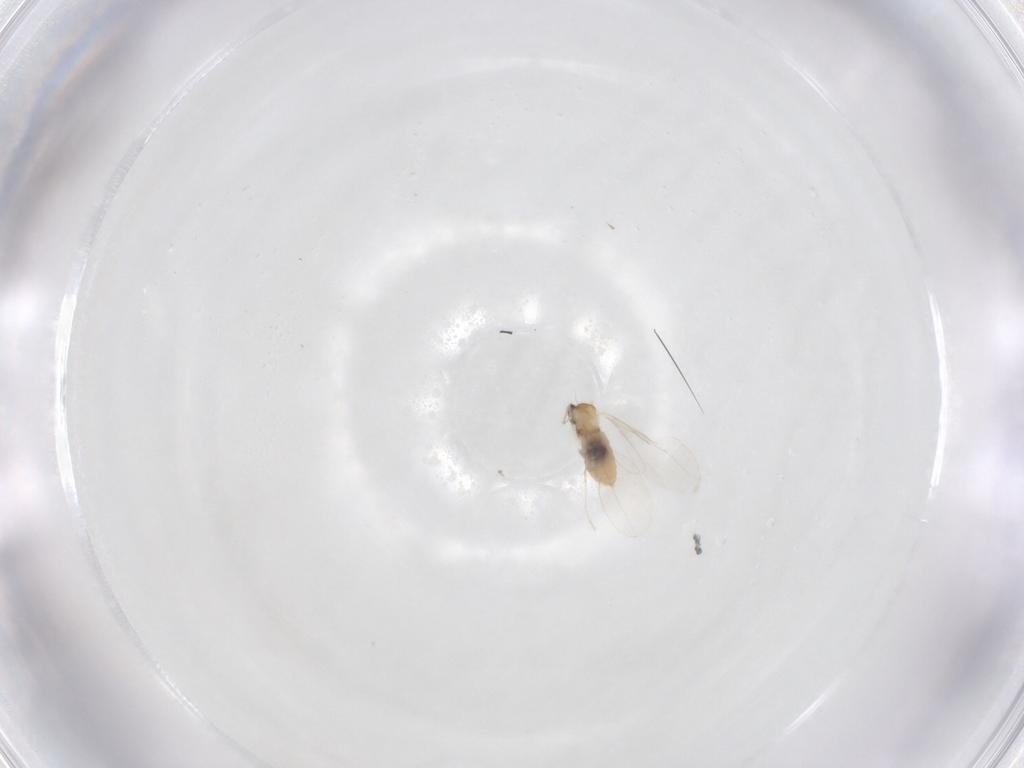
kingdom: Animalia
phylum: Arthropoda
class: Insecta
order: Diptera
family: Cecidomyiidae
